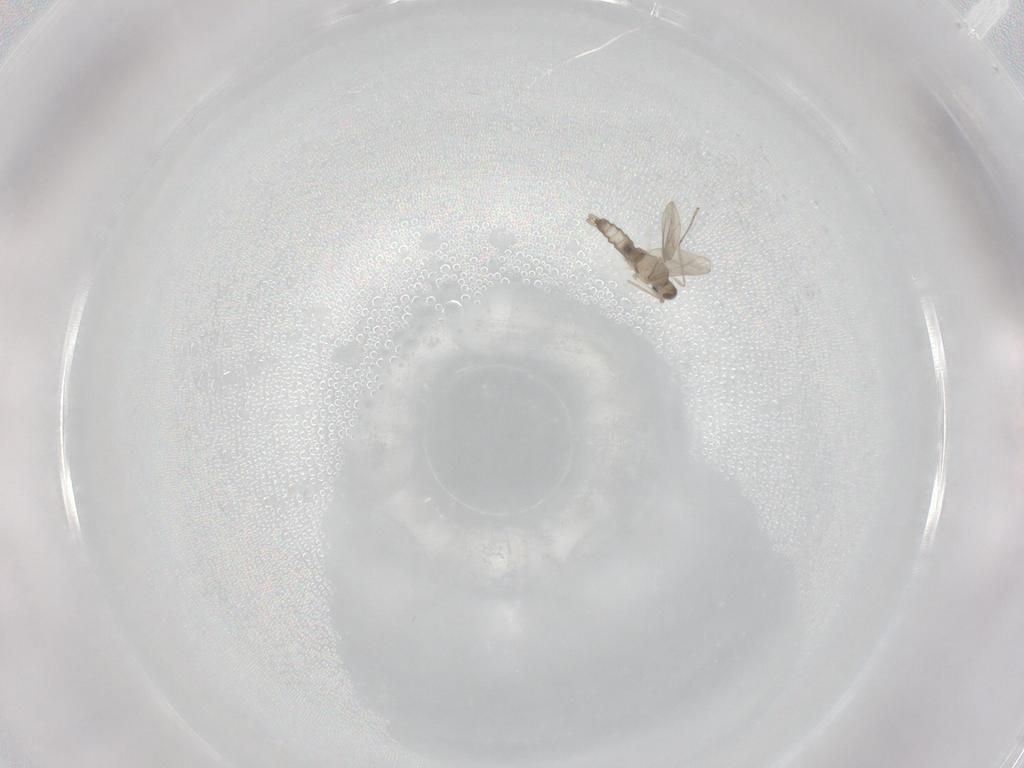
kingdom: Animalia
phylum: Arthropoda
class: Insecta
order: Diptera
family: Cecidomyiidae
